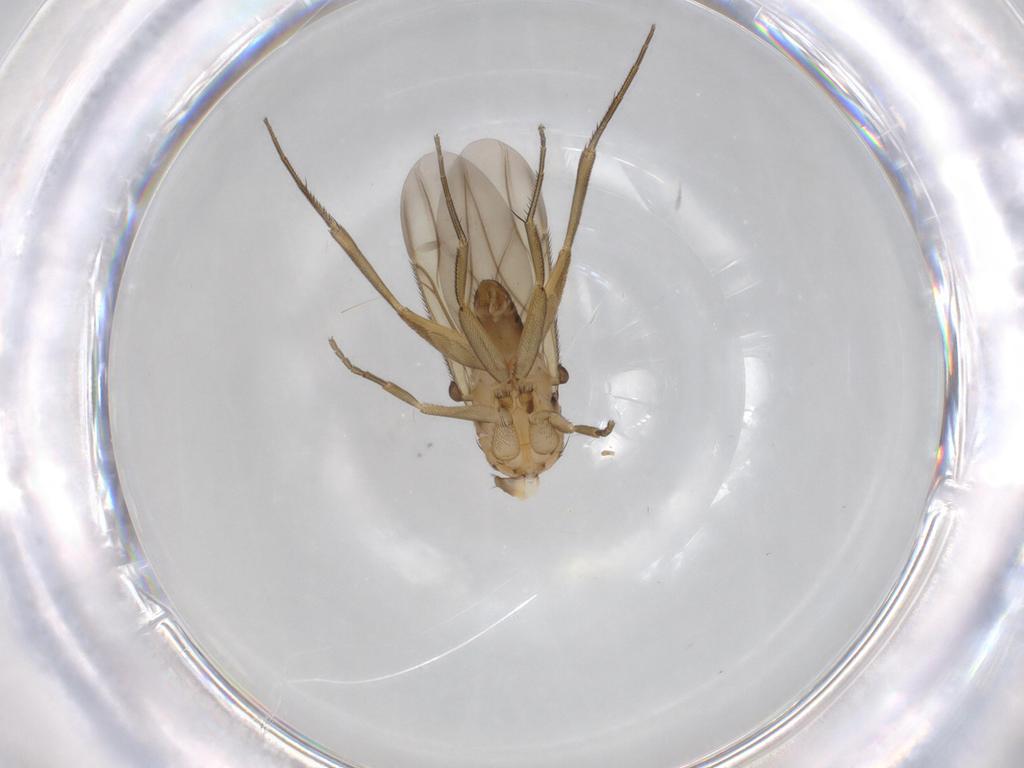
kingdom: Animalia
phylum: Arthropoda
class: Insecta
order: Diptera
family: Phoridae
